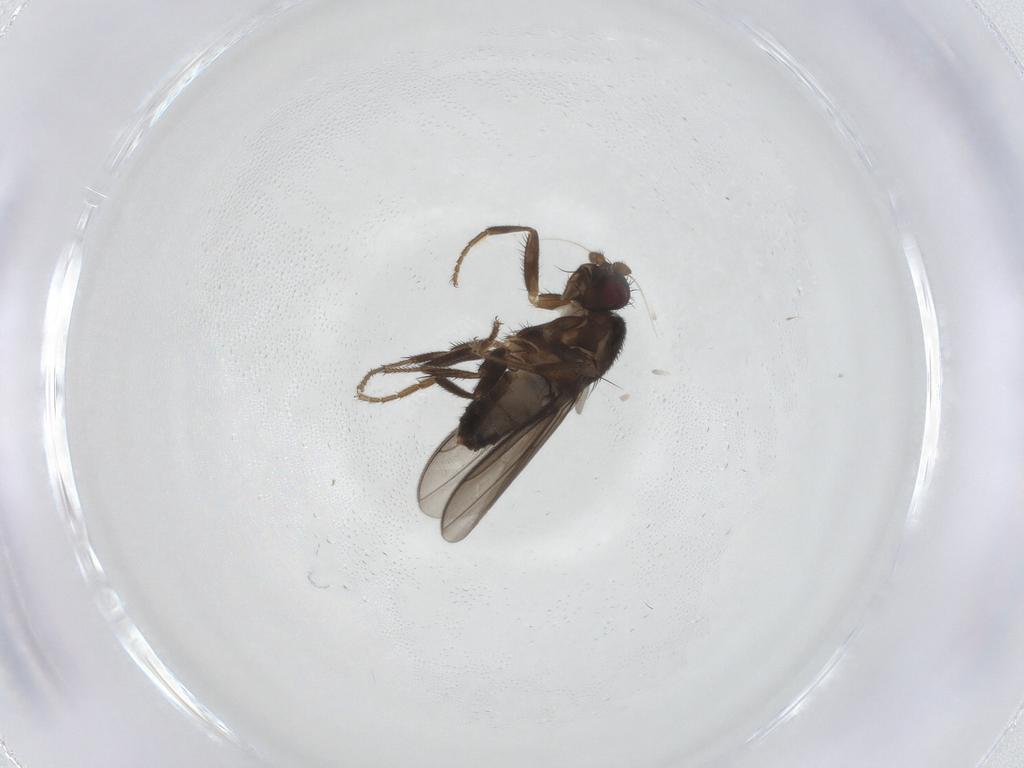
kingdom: Animalia
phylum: Arthropoda
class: Insecta
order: Diptera
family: Sphaeroceridae
